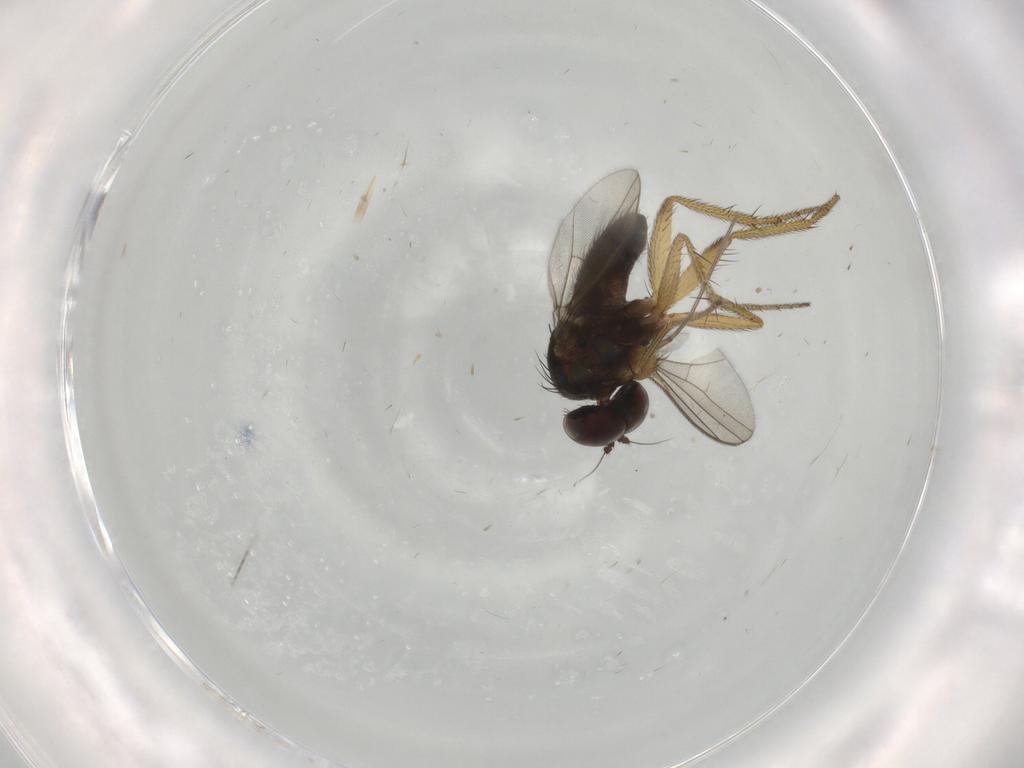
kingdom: Animalia
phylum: Arthropoda
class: Insecta
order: Diptera
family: Dolichopodidae
